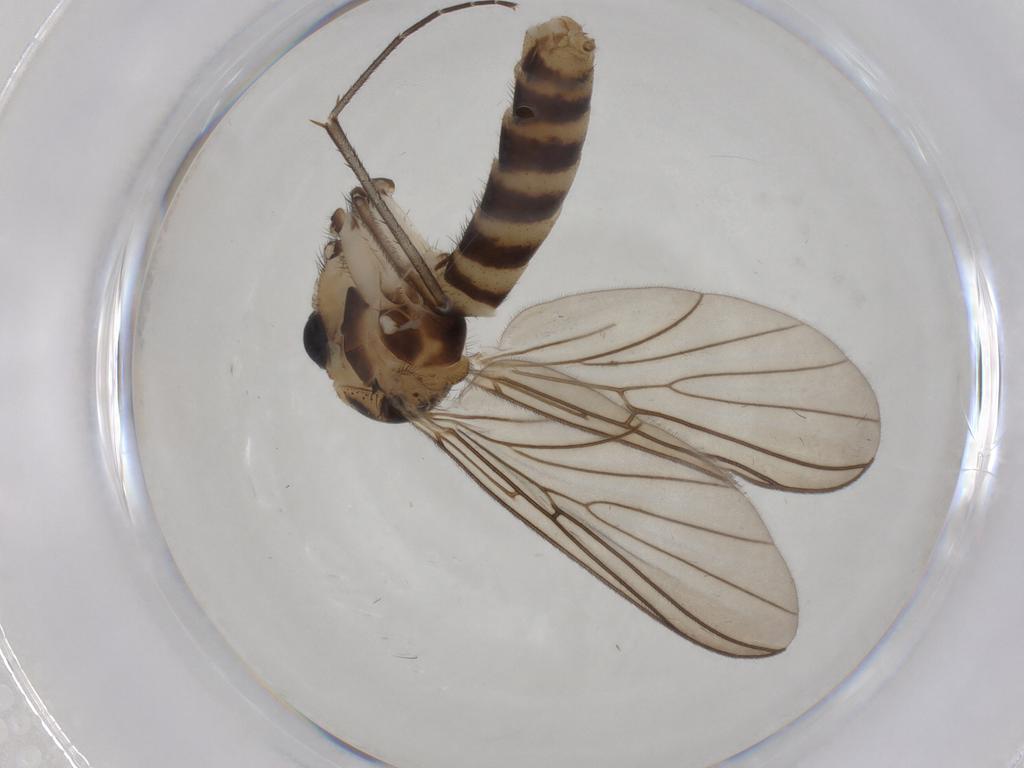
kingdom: Animalia
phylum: Arthropoda
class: Insecta
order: Diptera
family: Mycetophilidae
